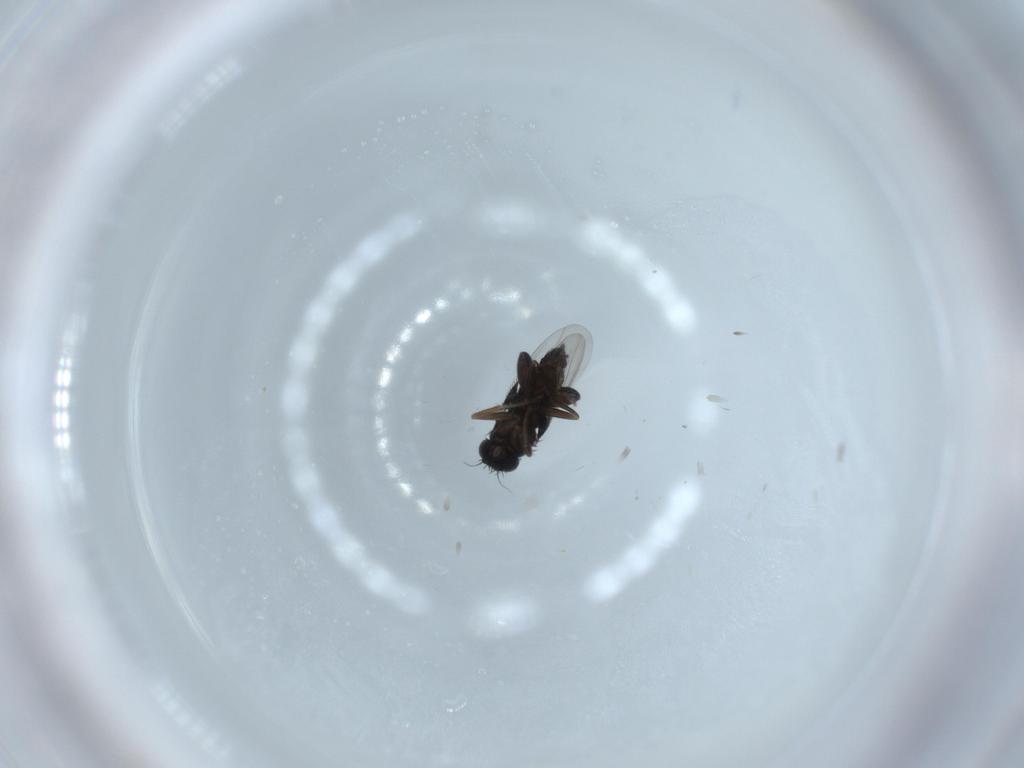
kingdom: Animalia
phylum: Arthropoda
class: Insecta
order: Diptera
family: Phoridae
